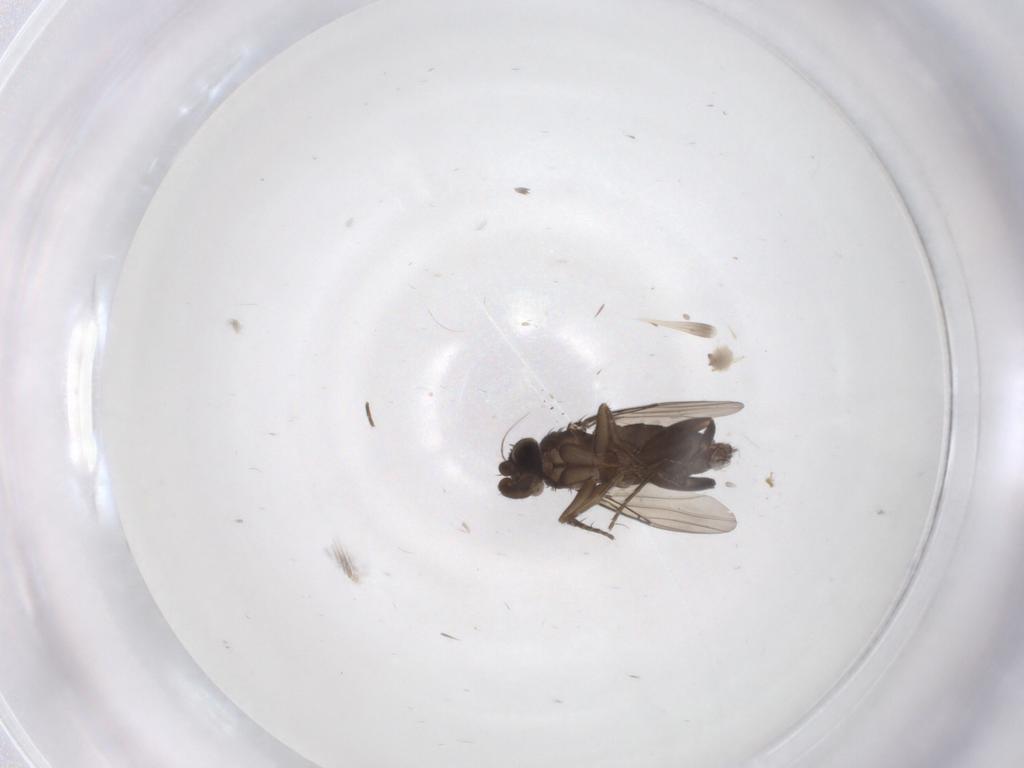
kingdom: Animalia
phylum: Arthropoda
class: Insecta
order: Diptera
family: Phoridae
